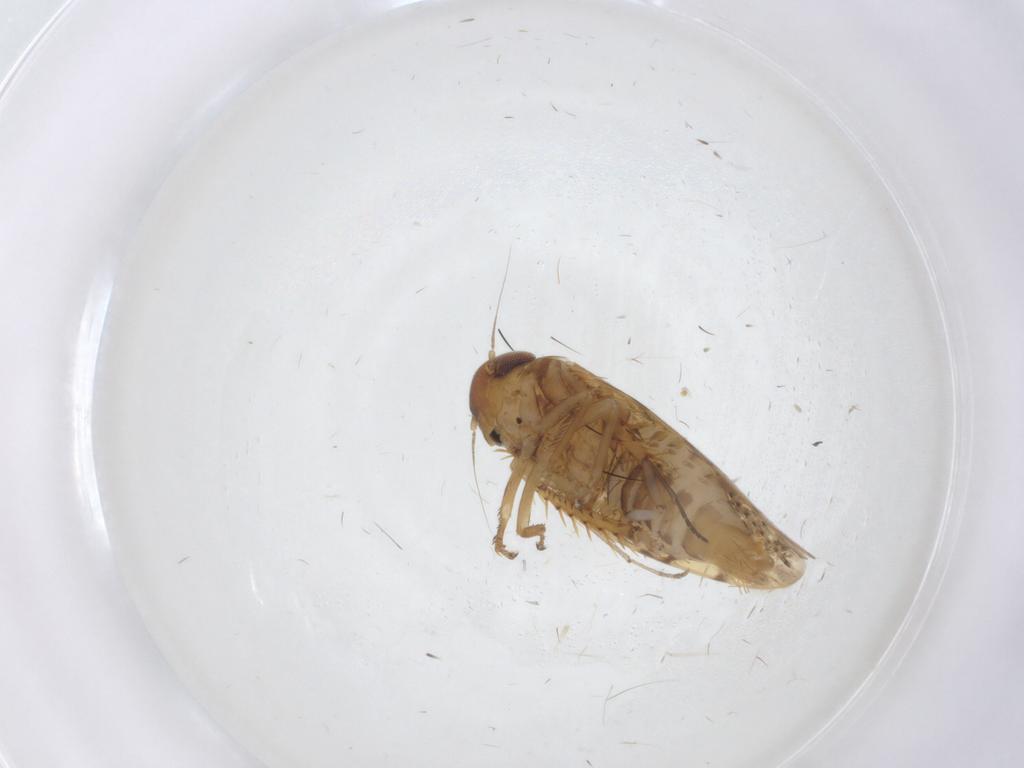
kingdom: Animalia
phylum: Arthropoda
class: Insecta
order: Hemiptera
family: Cicadellidae
